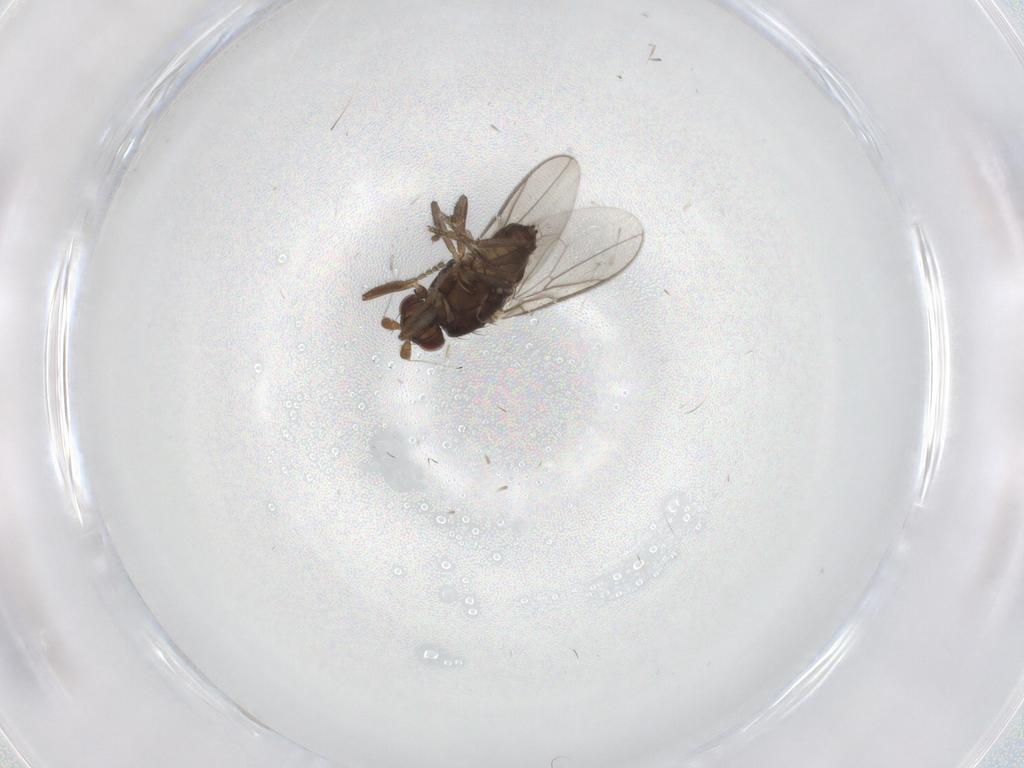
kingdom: Animalia
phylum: Arthropoda
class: Insecta
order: Diptera
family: Sphaeroceridae
